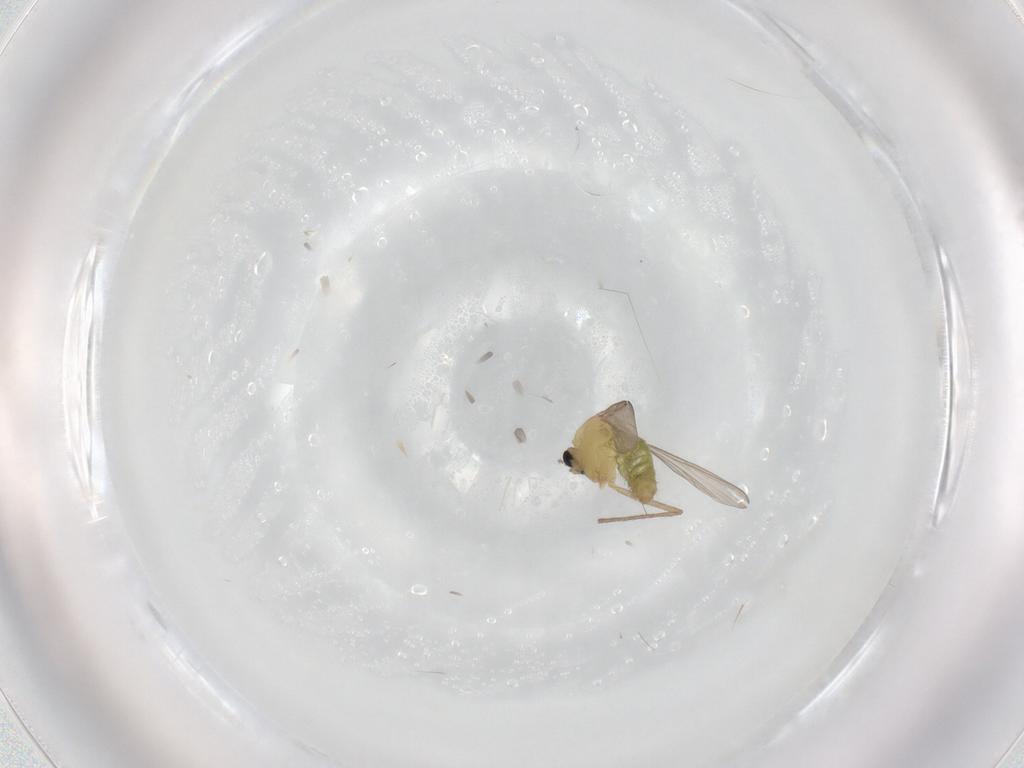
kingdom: Animalia
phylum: Arthropoda
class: Insecta
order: Diptera
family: Chironomidae
